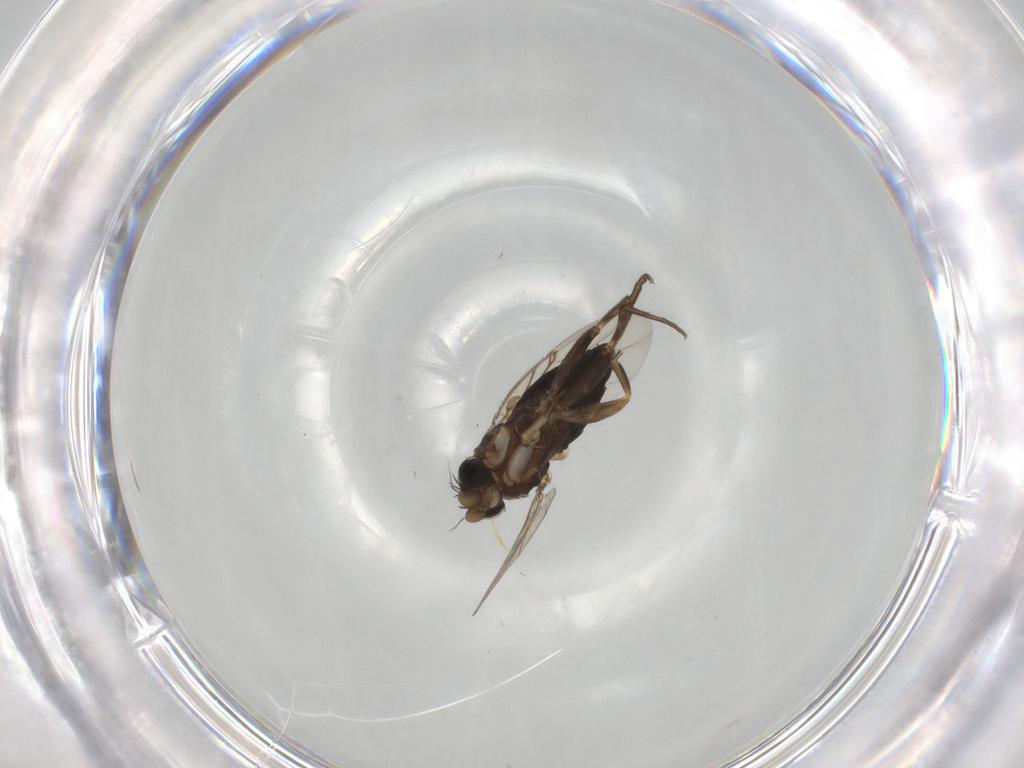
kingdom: Animalia
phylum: Arthropoda
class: Insecta
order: Diptera
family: Phoridae
